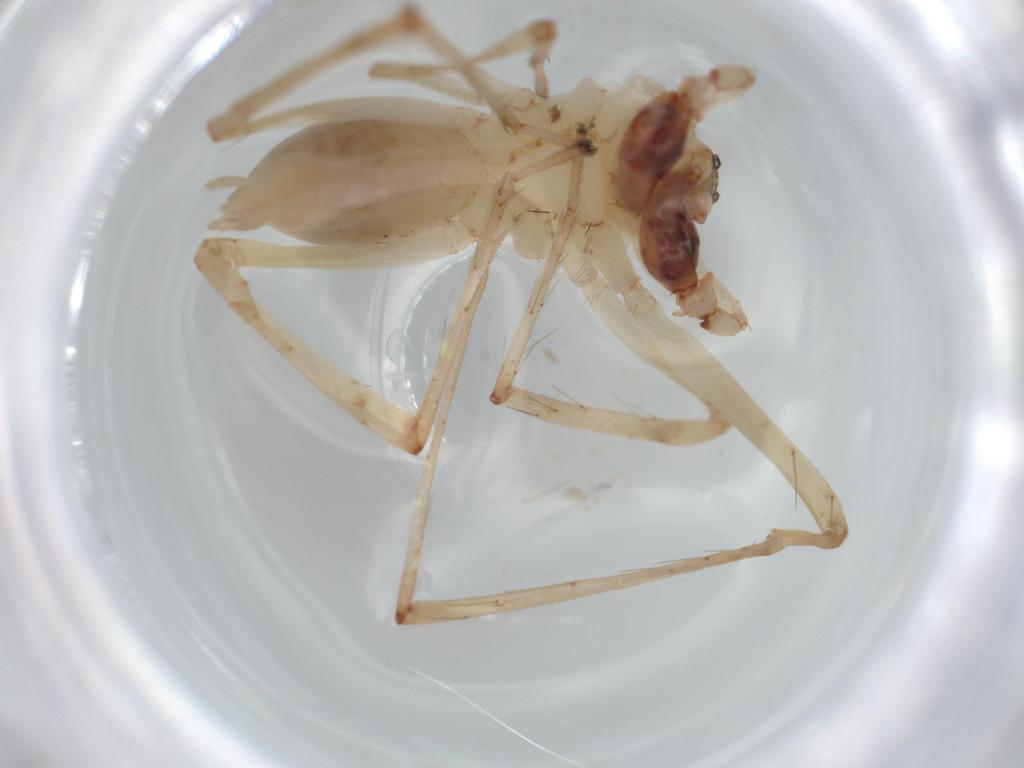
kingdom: Animalia
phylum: Arthropoda
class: Arachnida
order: Araneae
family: Anyphaenidae
